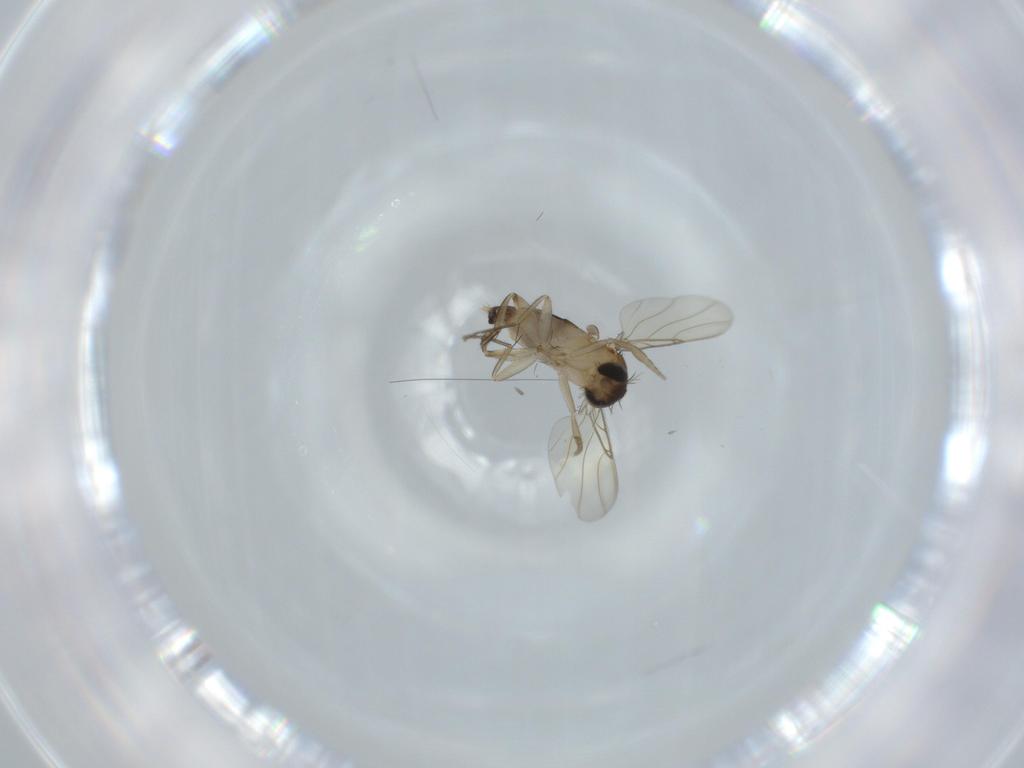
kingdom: Animalia
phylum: Arthropoda
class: Insecta
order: Diptera
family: Phoridae
